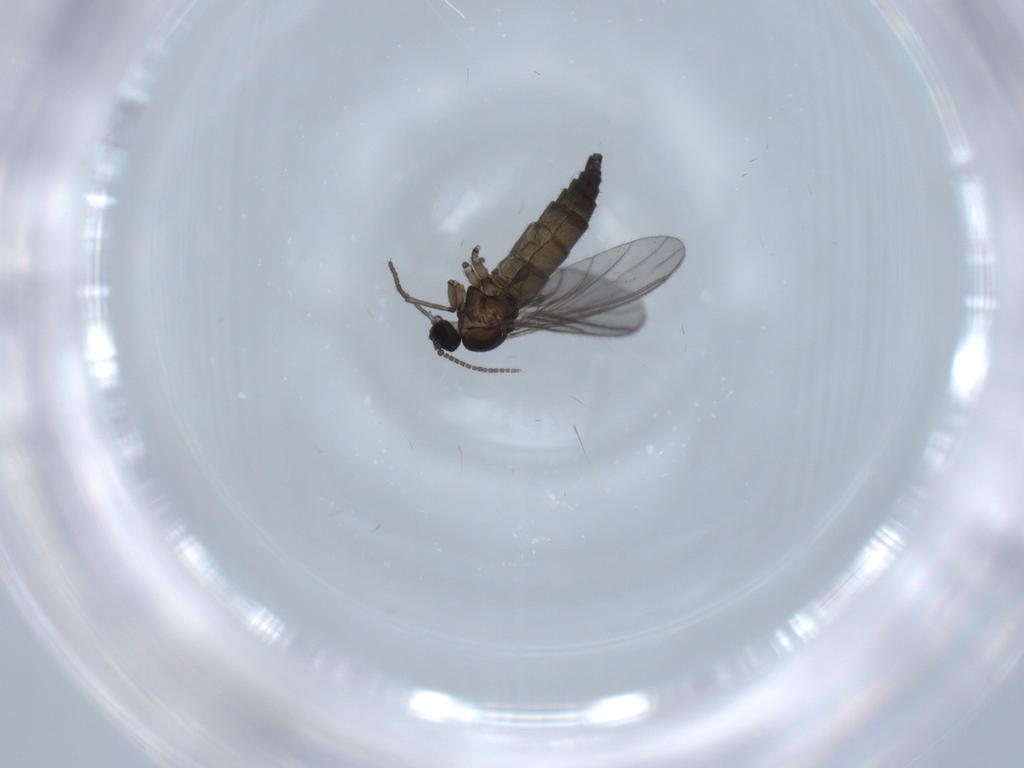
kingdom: Animalia
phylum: Arthropoda
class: Insecta
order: Diptera
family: Sciaridae
